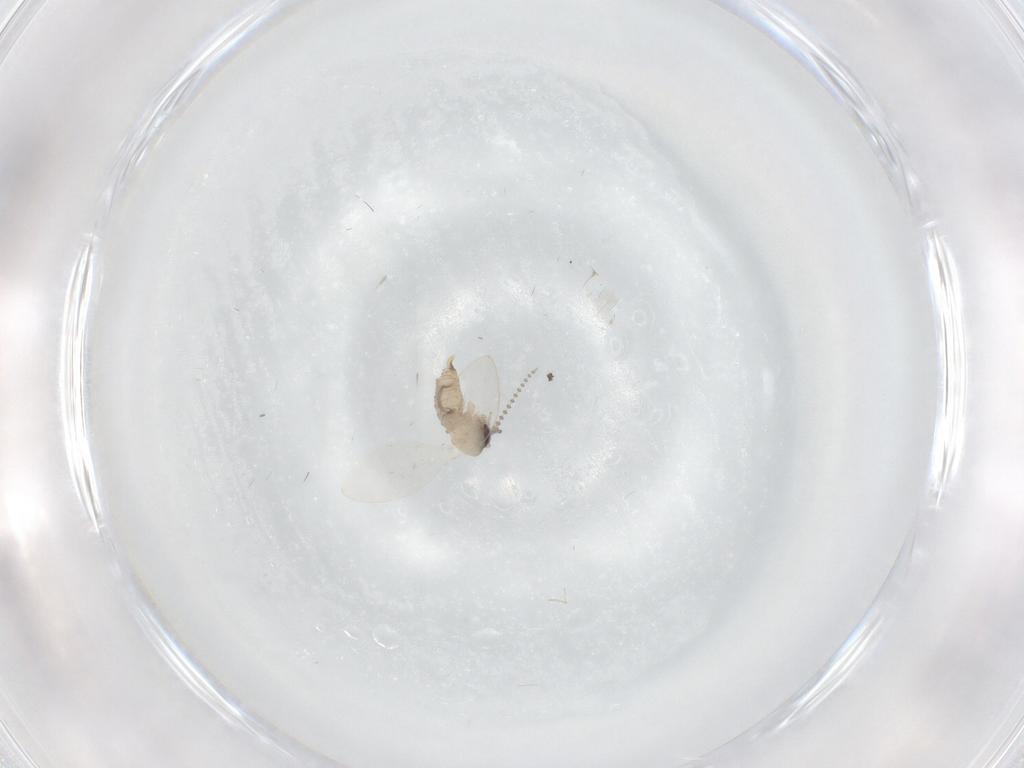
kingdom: Animalia
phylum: Arthropoda
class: Insecta
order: Diptera
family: Psychodidae
